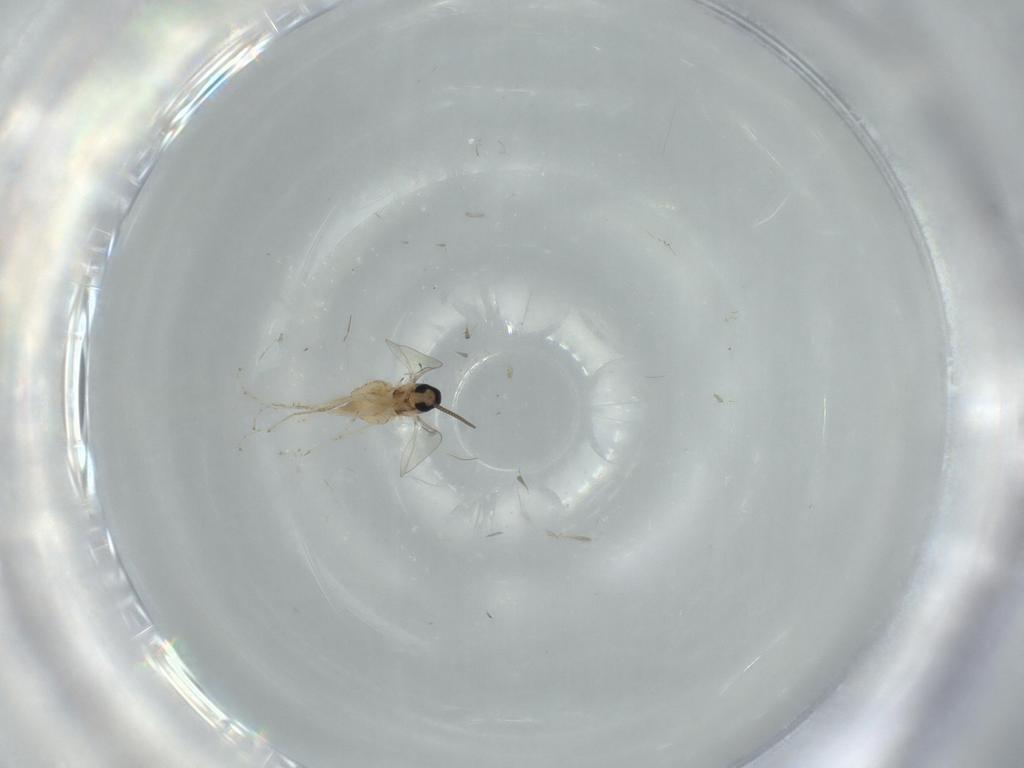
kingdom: Animalia
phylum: Arthropoda
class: Insecta
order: Diptera
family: Cecidomyiidae
